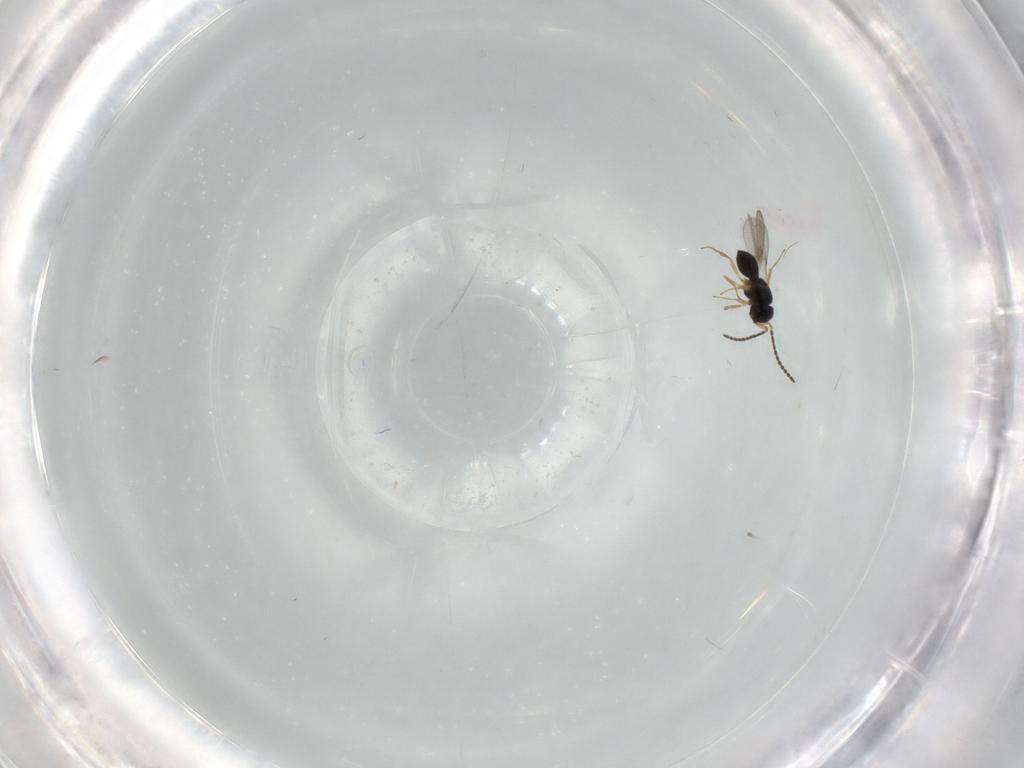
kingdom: Animalia
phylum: Arthropoda
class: Insecta
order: Hymenoptera
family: Scelionidae
